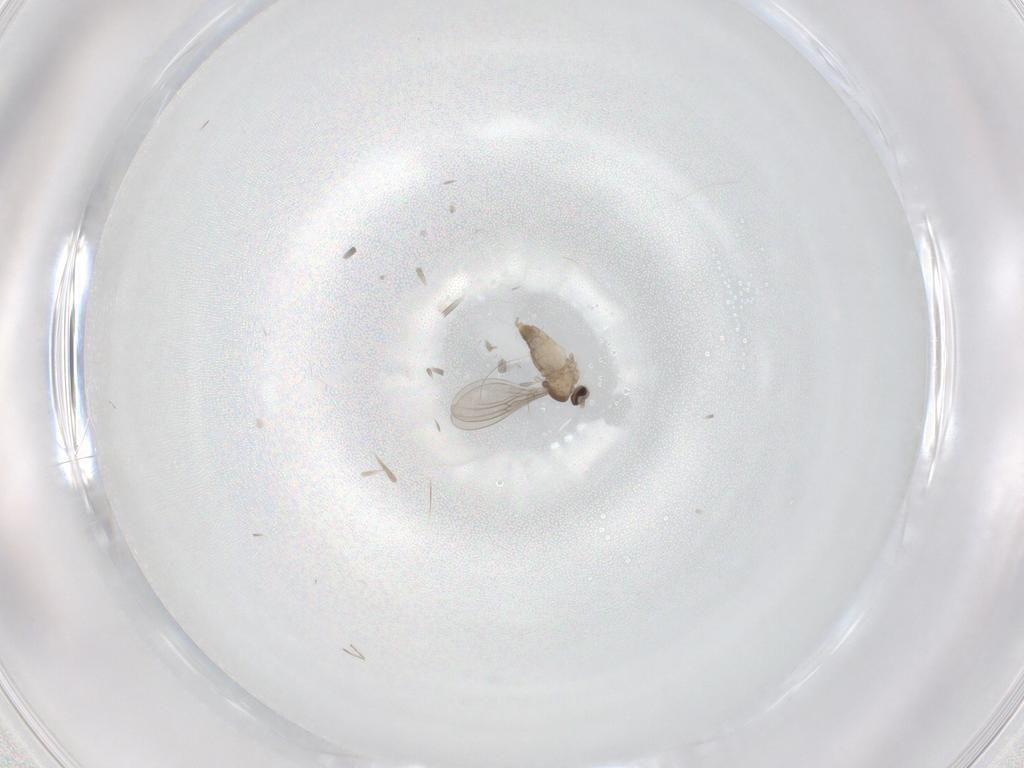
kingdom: Animalia
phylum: Arthropoda
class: Insecta
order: Diptera
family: Cecidomyiidae
